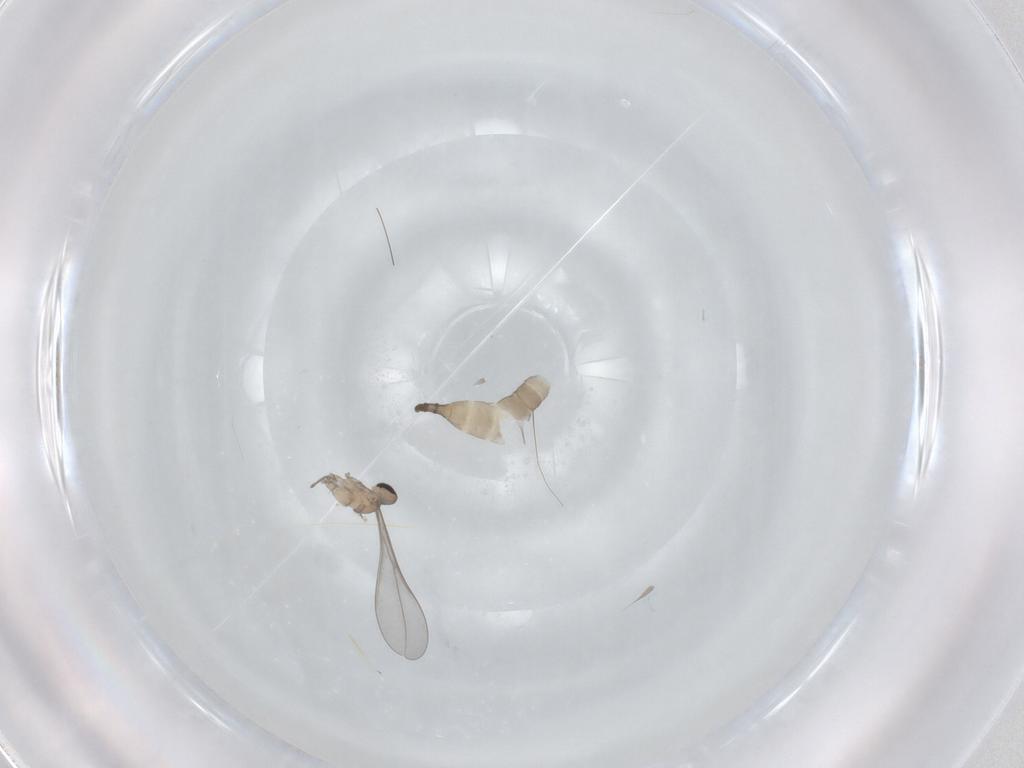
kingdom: Animalia
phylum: Arthropoda
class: Insecta
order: Diptera
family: Cecidomyiidae
